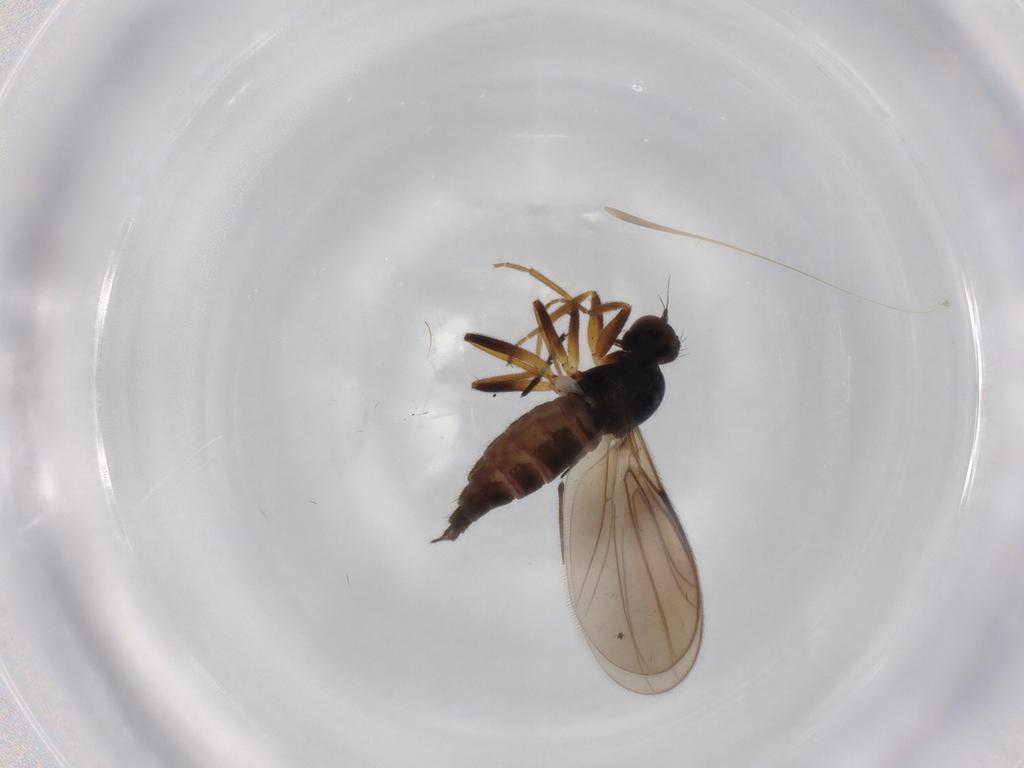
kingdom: Animalia
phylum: Arthropoda
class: Insecta
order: Diptera
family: Hybotidae
